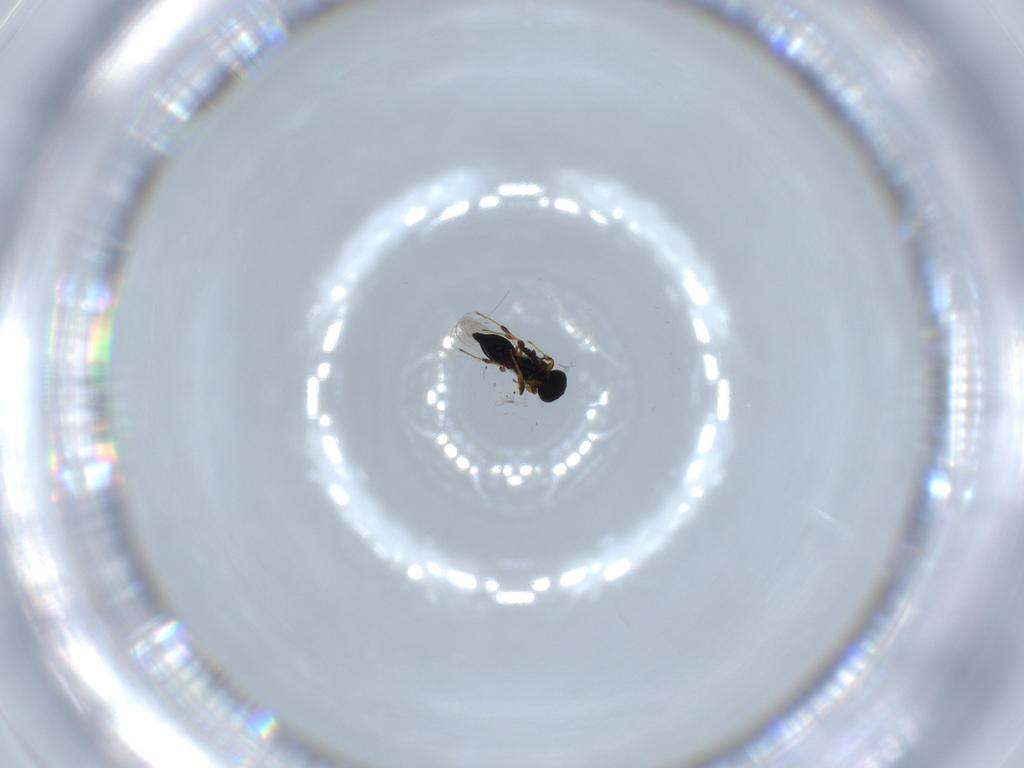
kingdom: Animalia
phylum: Arthropoda
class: Insecta
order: Hymenoptera
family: Platygastridae
